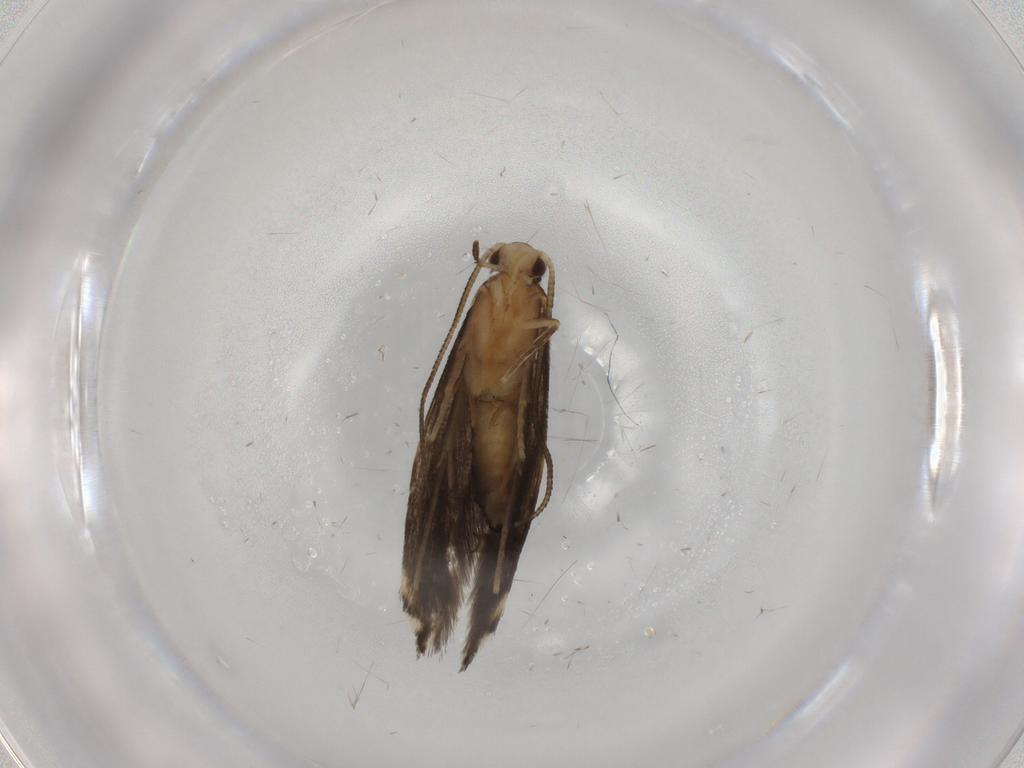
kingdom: Animalia
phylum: Arthropoda
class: Insecta
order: Lepidoptera
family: Tineidae
